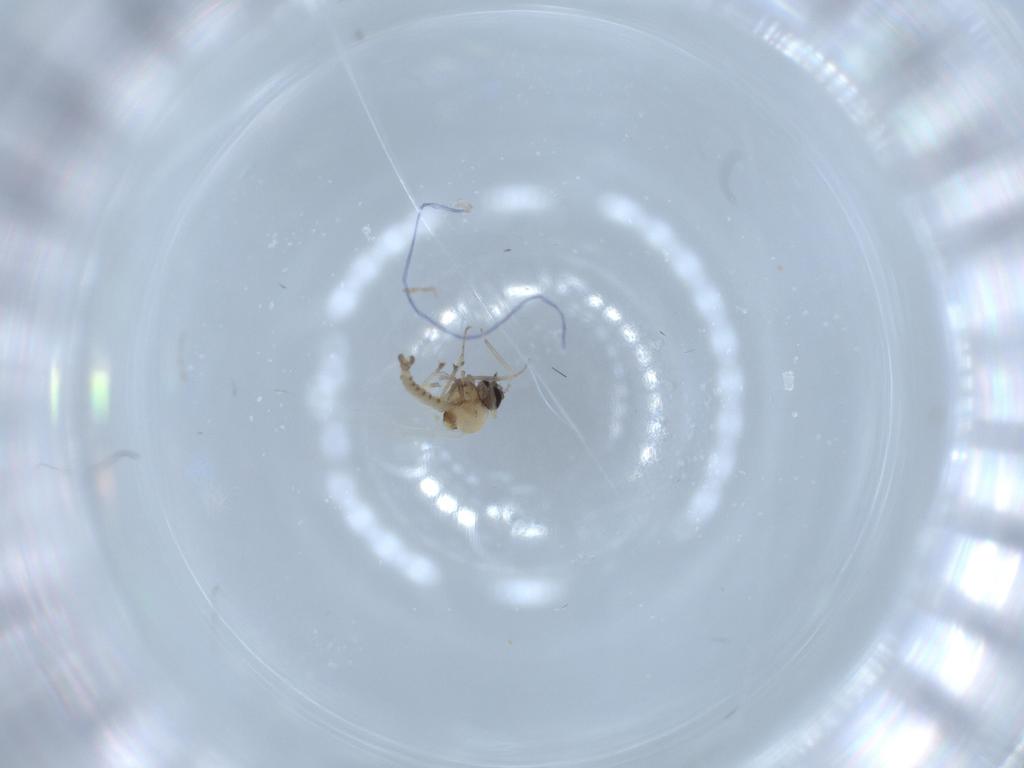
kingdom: Animalia
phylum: Arthropoda
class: Insecta
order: Diptera
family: Ceratopogonidae
